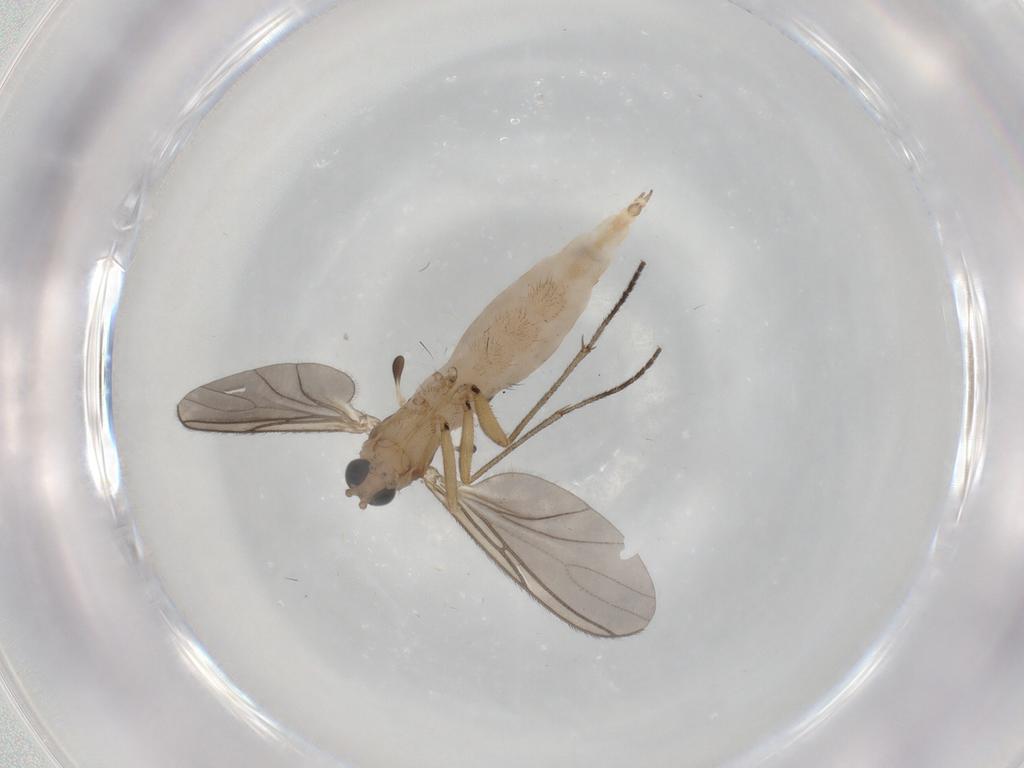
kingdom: Animalia
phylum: Arthropoda
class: Insecta
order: Diptera
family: Sciaridae
